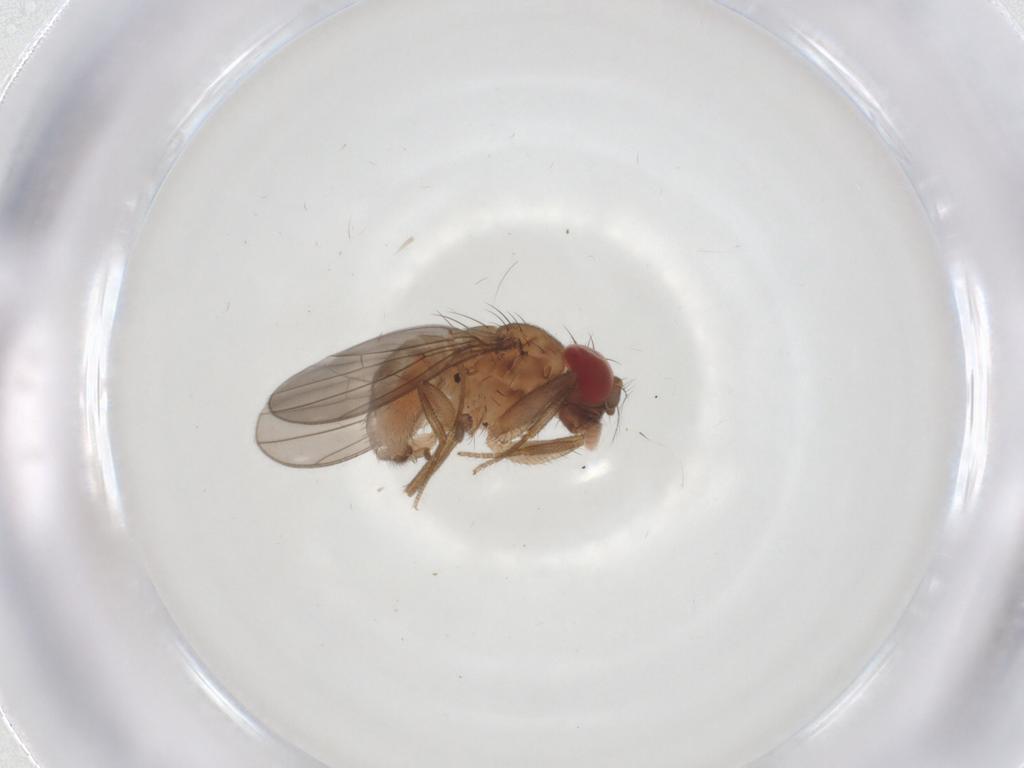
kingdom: Animalia
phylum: Arthropoda
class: Insecta
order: Diptera
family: Drosophilidae
